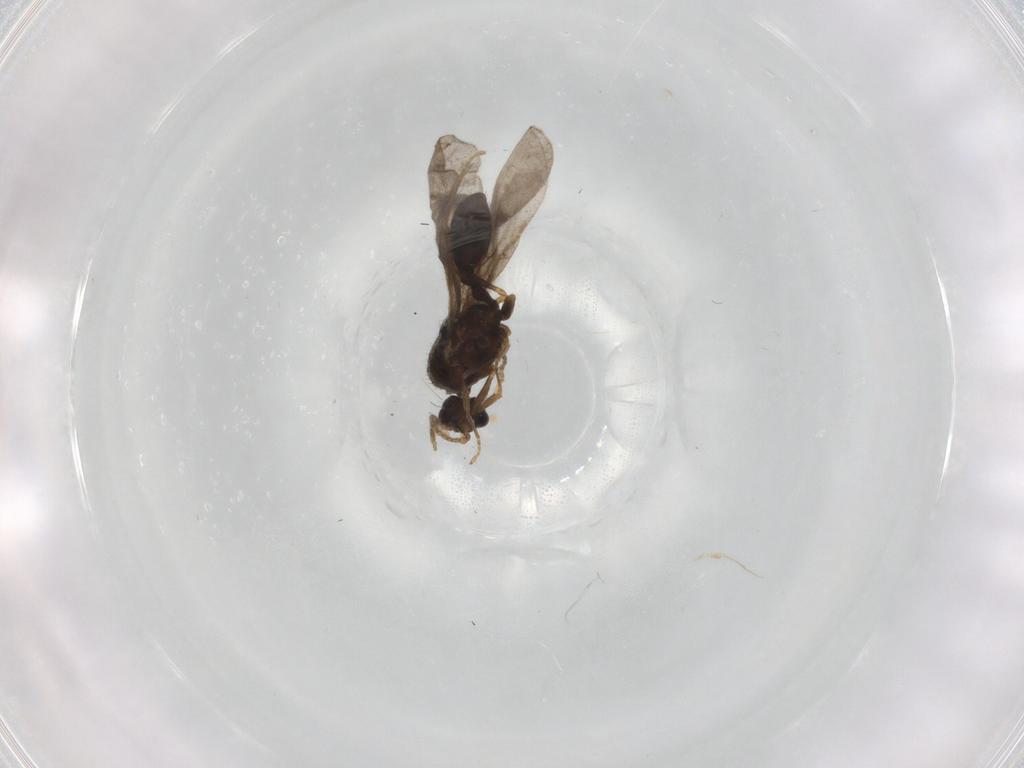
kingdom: Animalia
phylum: Arthropoda
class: Insecta
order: Hymenoptera
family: Formicidae
